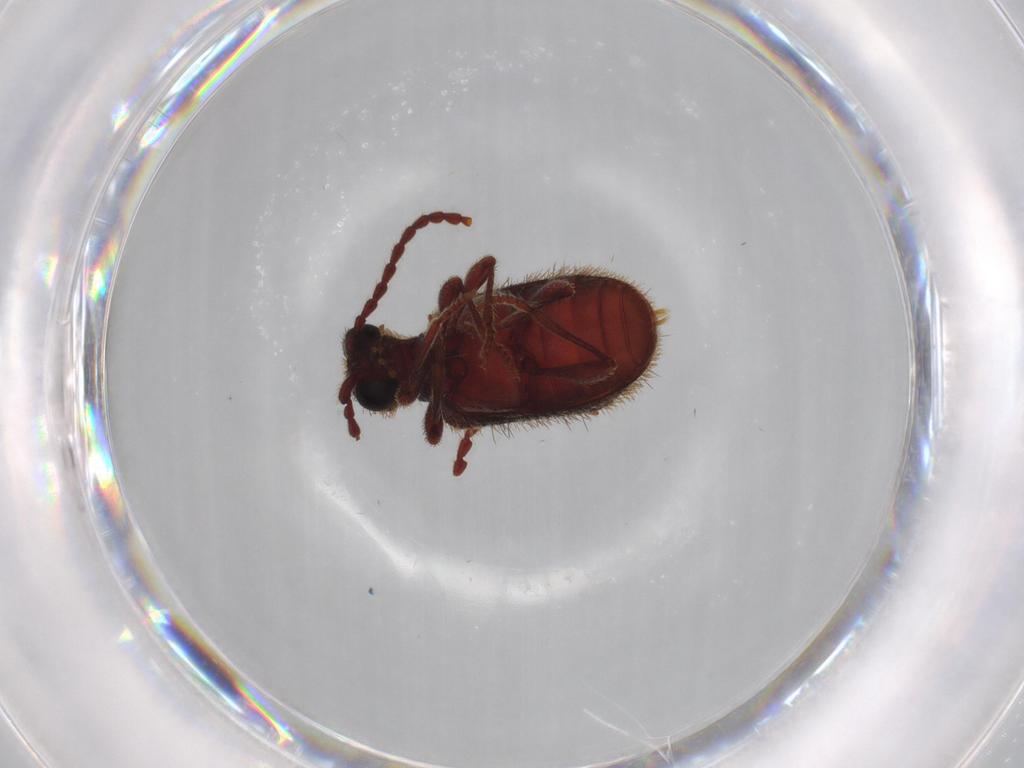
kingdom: Animalia
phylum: Arthropoda
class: Insecta
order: Coleoptera
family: Ptinidae
